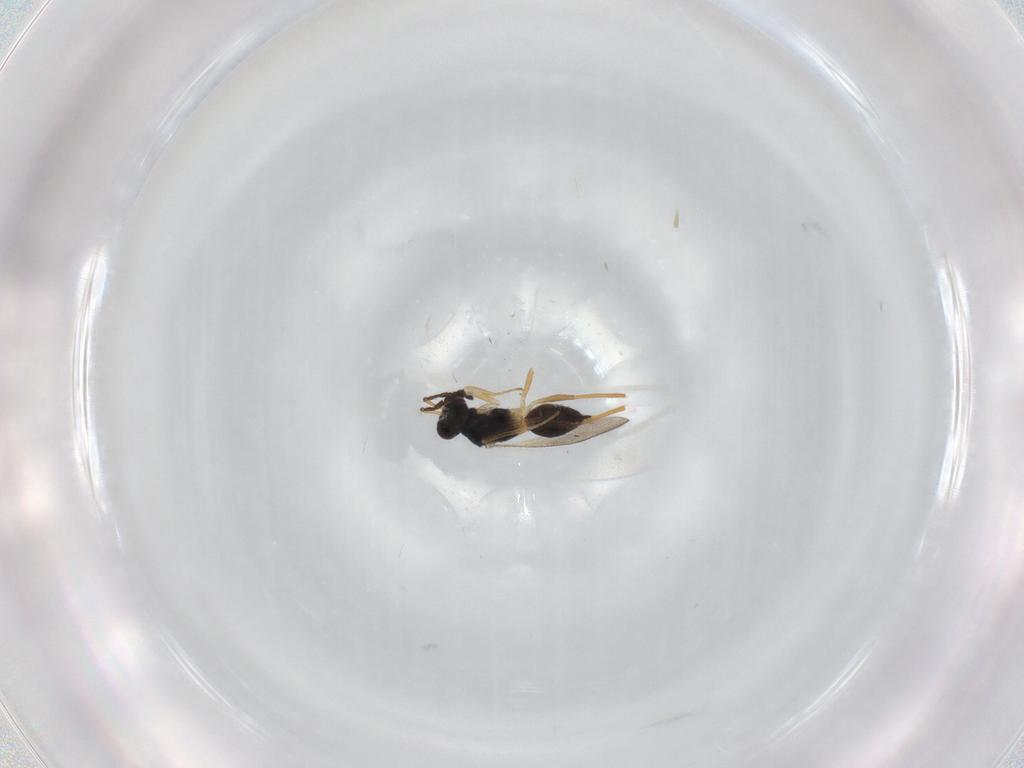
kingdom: Animalia
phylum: Arthropoda
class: Insecta
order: Hymenoptera
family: Eulophidae
